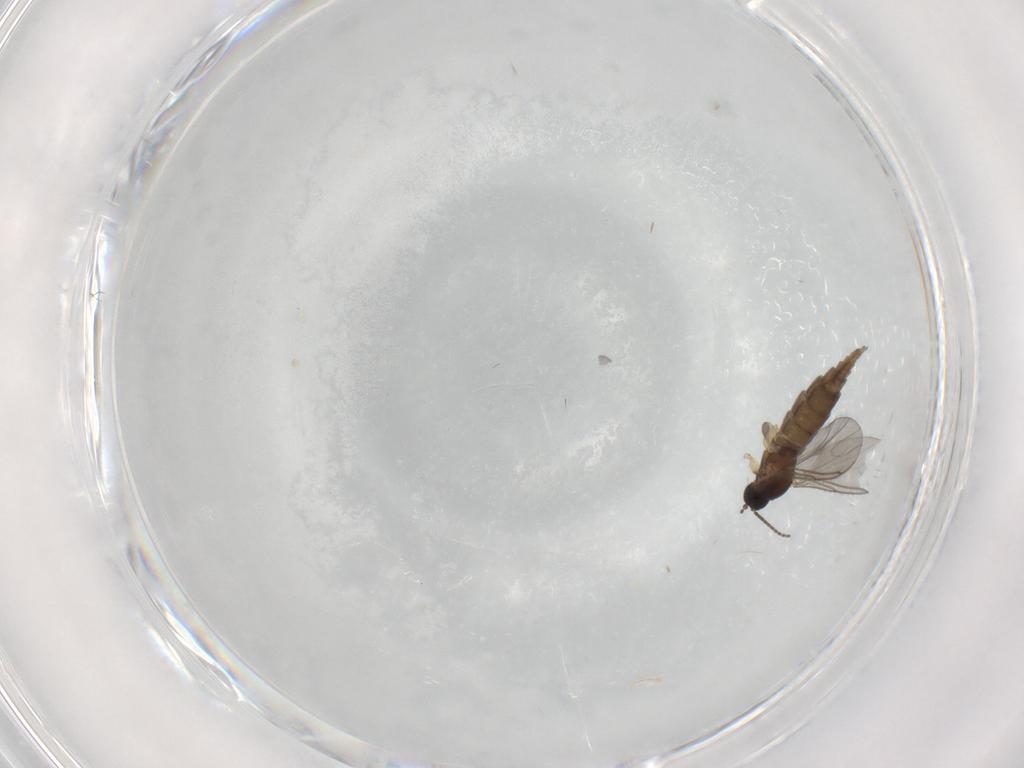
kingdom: Animalia
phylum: Arthropoda
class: Insecta
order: Diptera
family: Sciaridae
